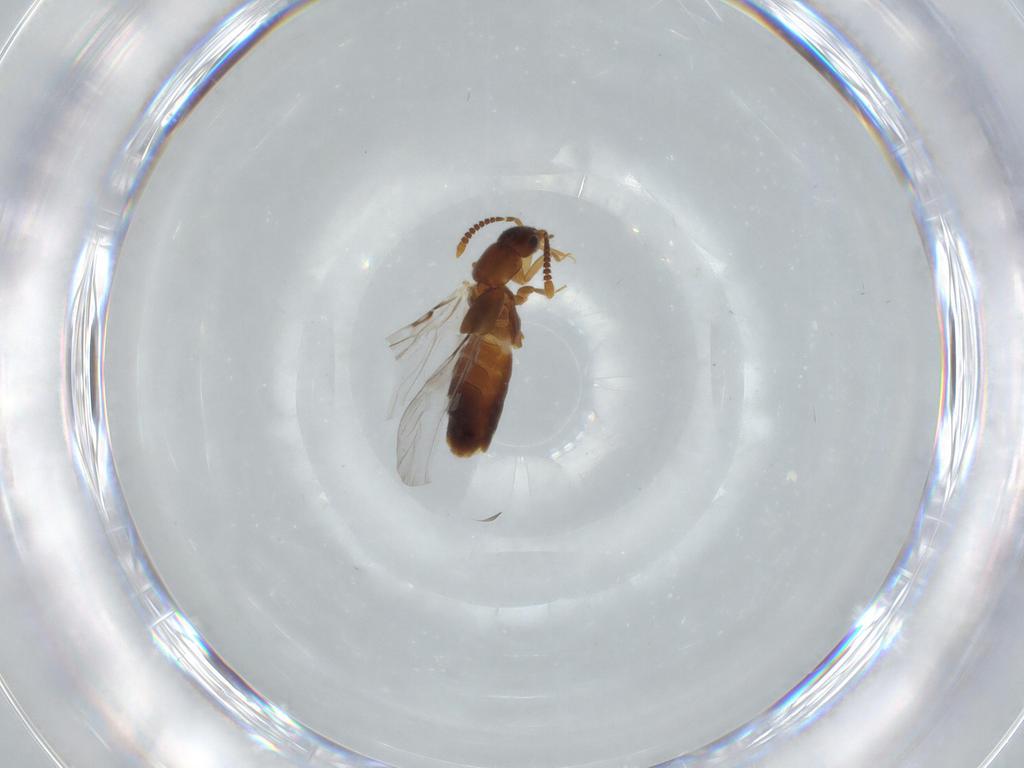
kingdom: Animalia
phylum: Arthropoda
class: Insecta
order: Coleoptera
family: Staphylinidae
